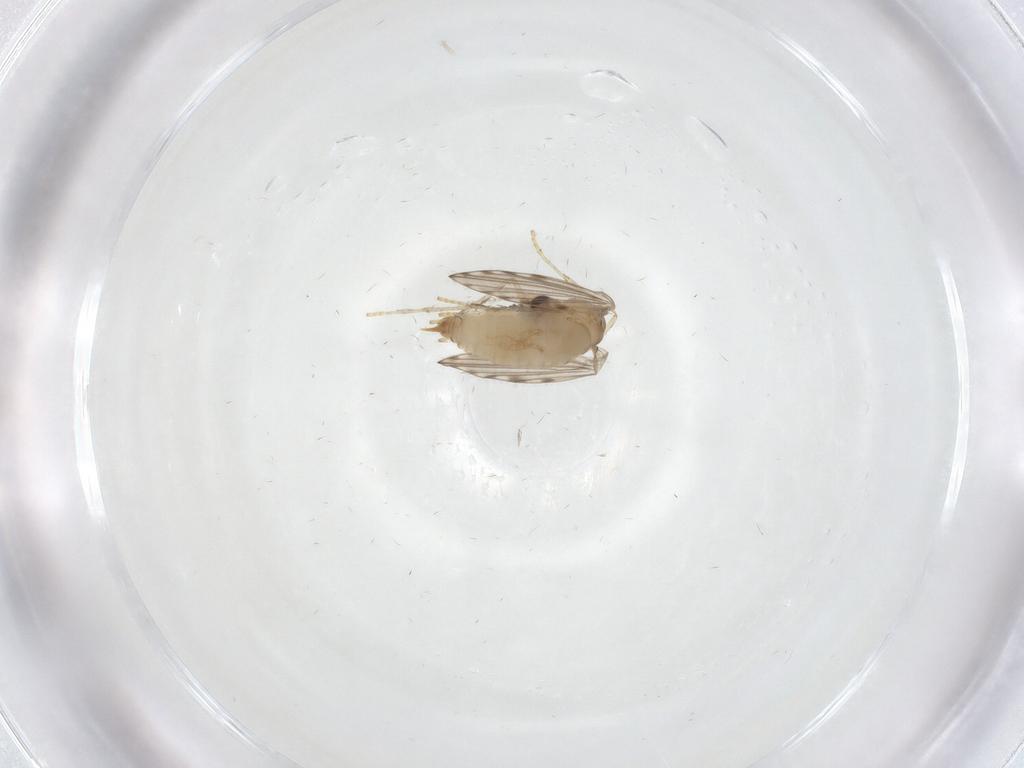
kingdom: Animalia
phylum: Arthropoda
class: Insecta
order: Diptera
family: Psychodidae
